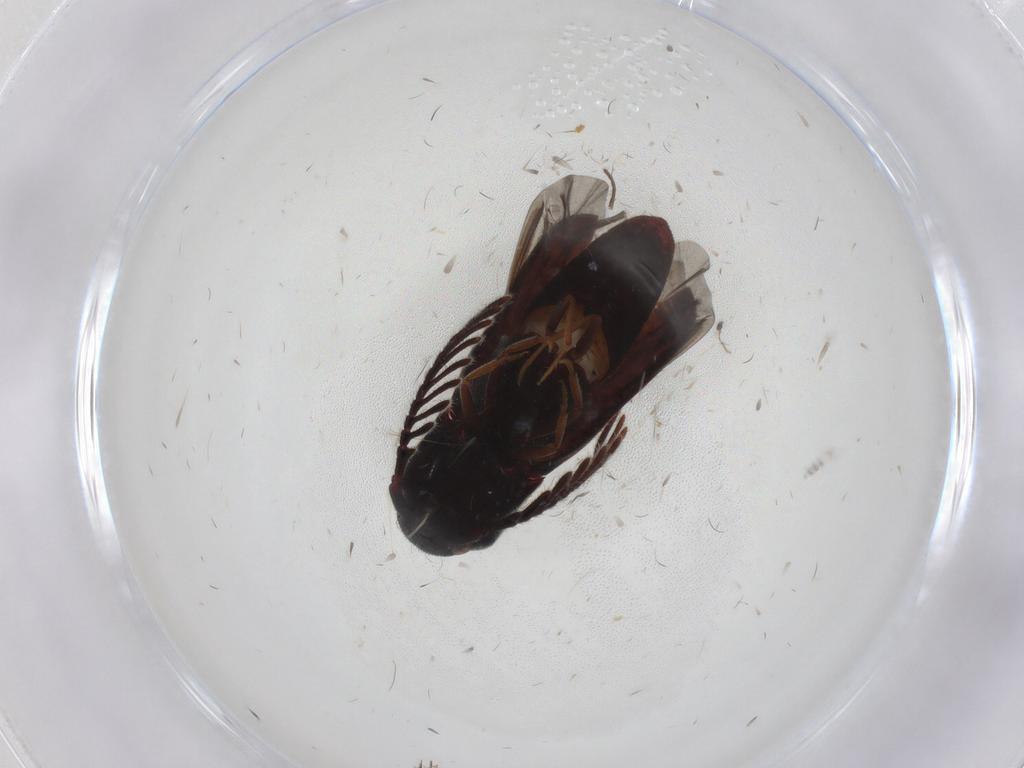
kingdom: Animalia
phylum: Arthropoda
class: Insecta
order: Coleoptera
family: Eucnemidae
